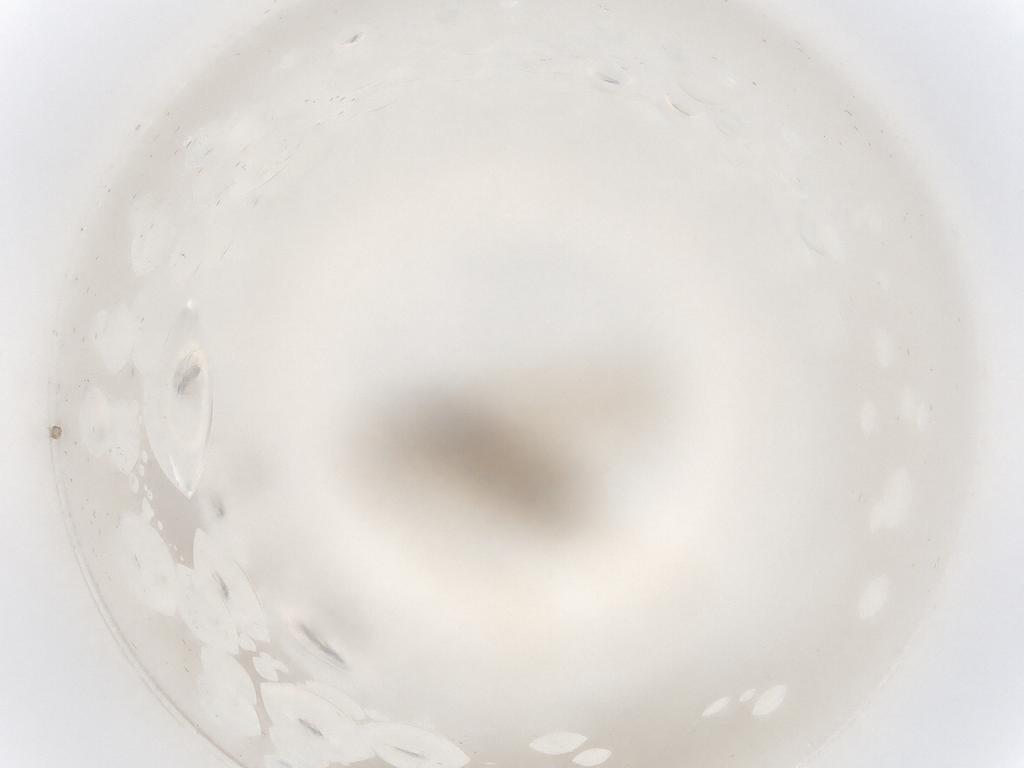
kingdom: Animalia
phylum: Arthropoda
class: Insecta
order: Diptera
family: Cecidomyiidae
